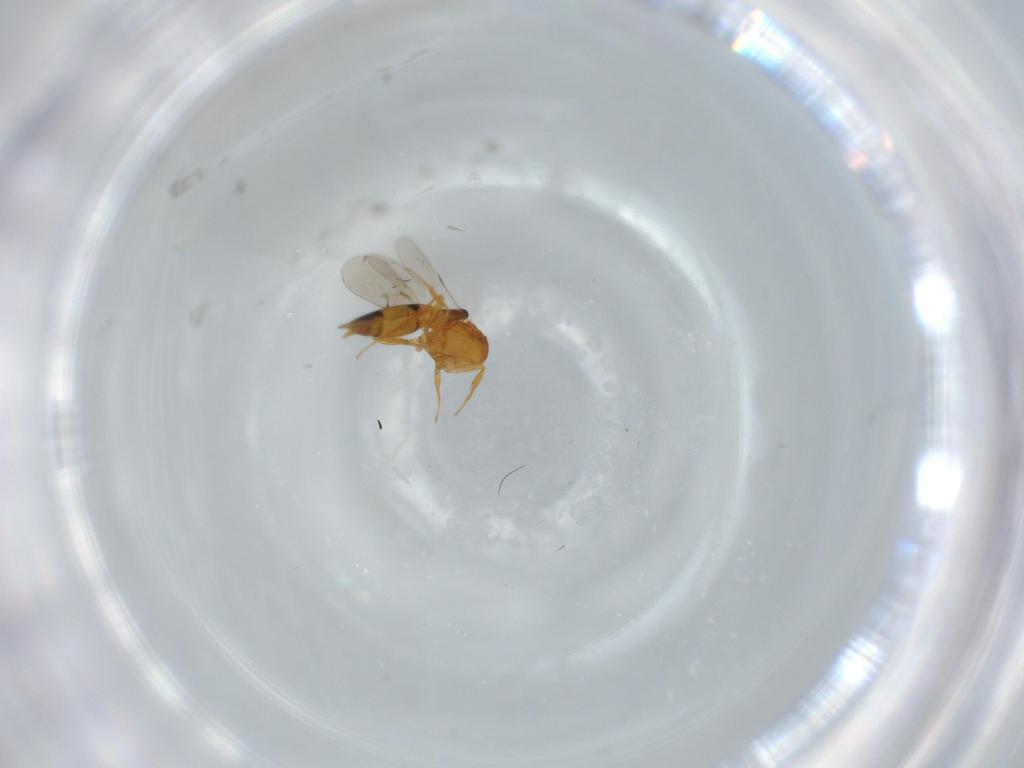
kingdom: Animalia
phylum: Arthropoda
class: Insecta
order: Hymenoptera
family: Scelionidae
